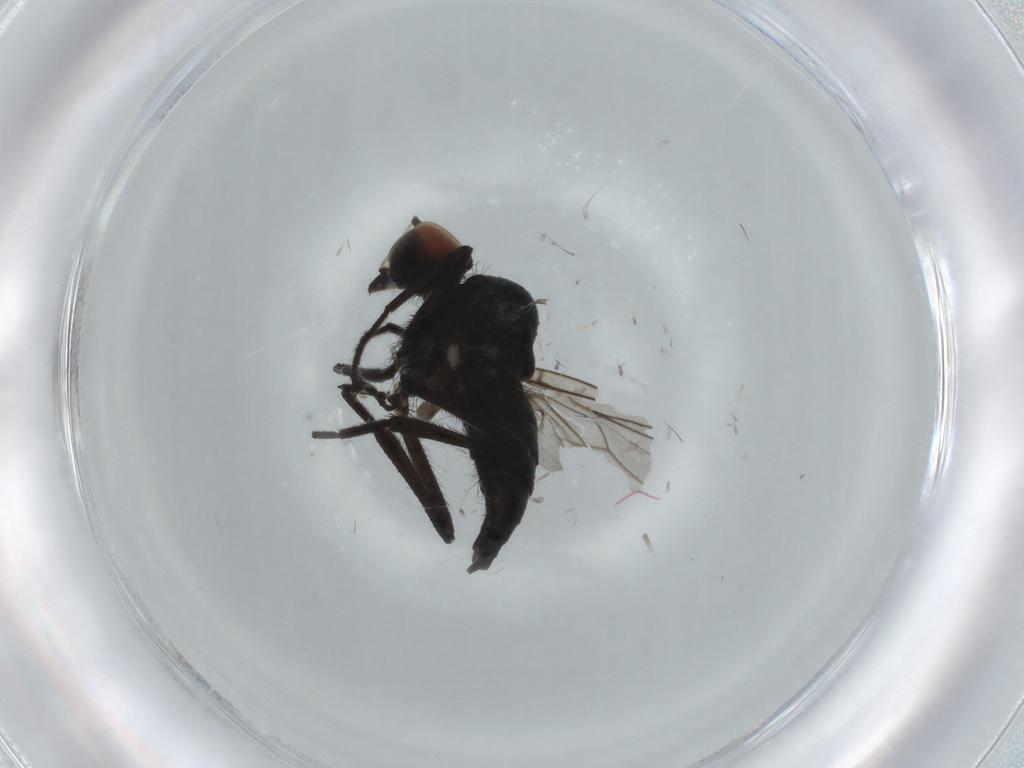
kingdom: Animalia
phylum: Arthropoda
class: Insecta
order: Diptera
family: Hybotidae
